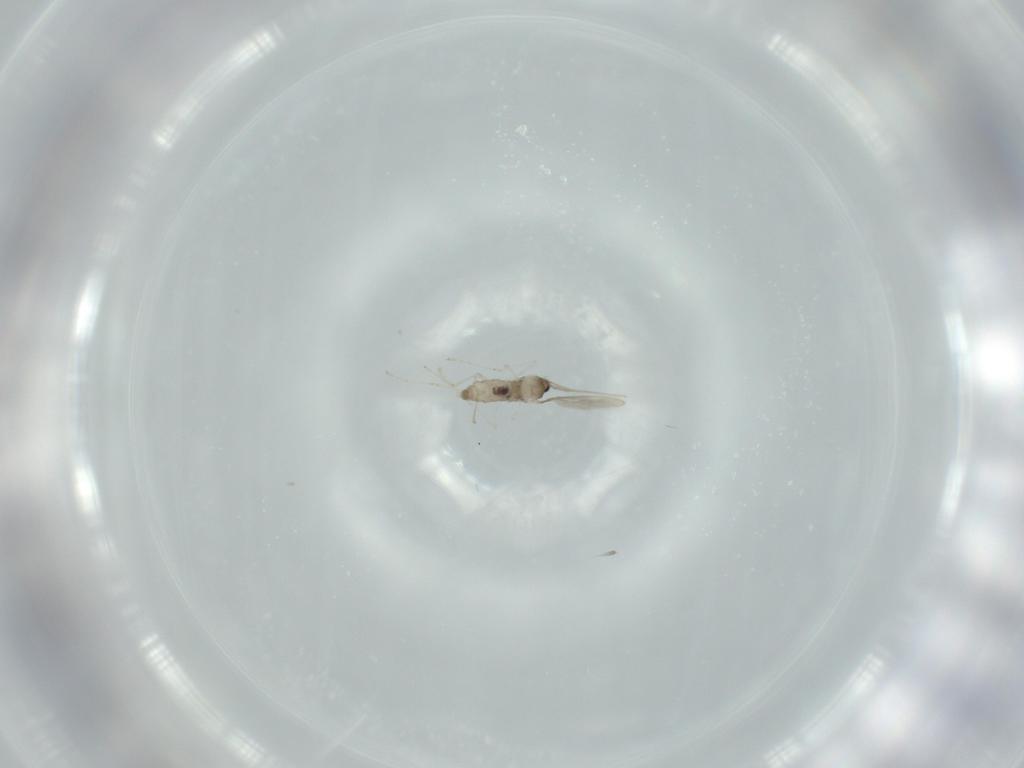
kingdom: Animalia
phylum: Arthropoda
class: Insecta
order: Diptera
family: Cecidomyiidae
